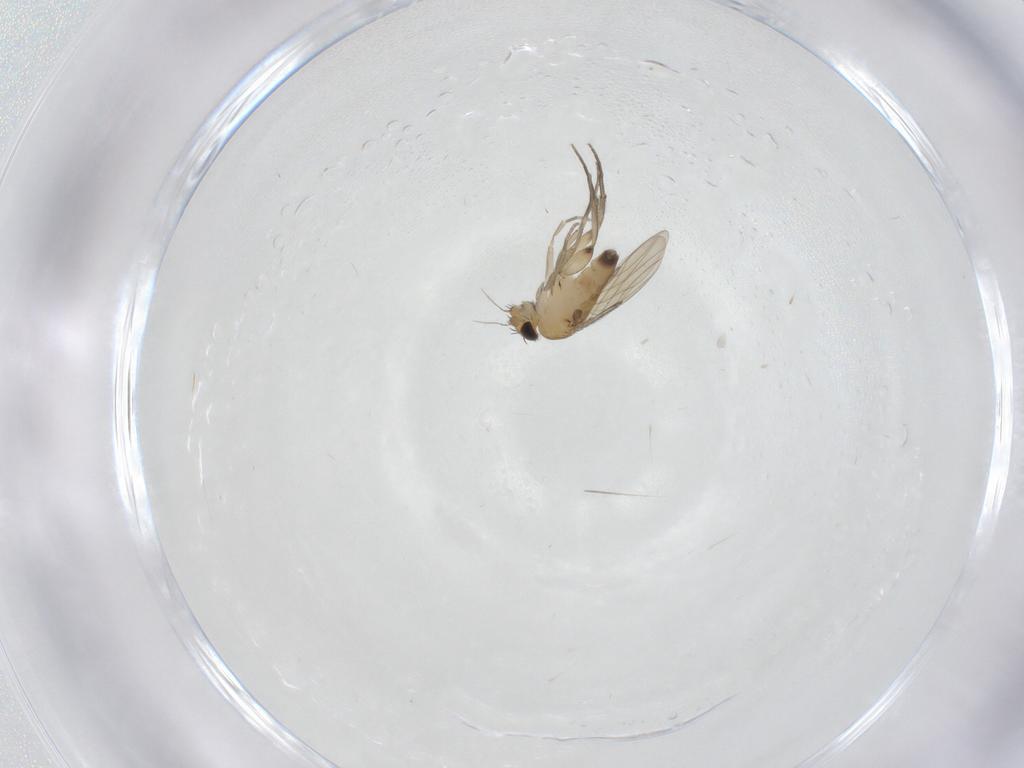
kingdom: Animalia
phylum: Arthropoda
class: Insecta
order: Diptera
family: Phoridae
